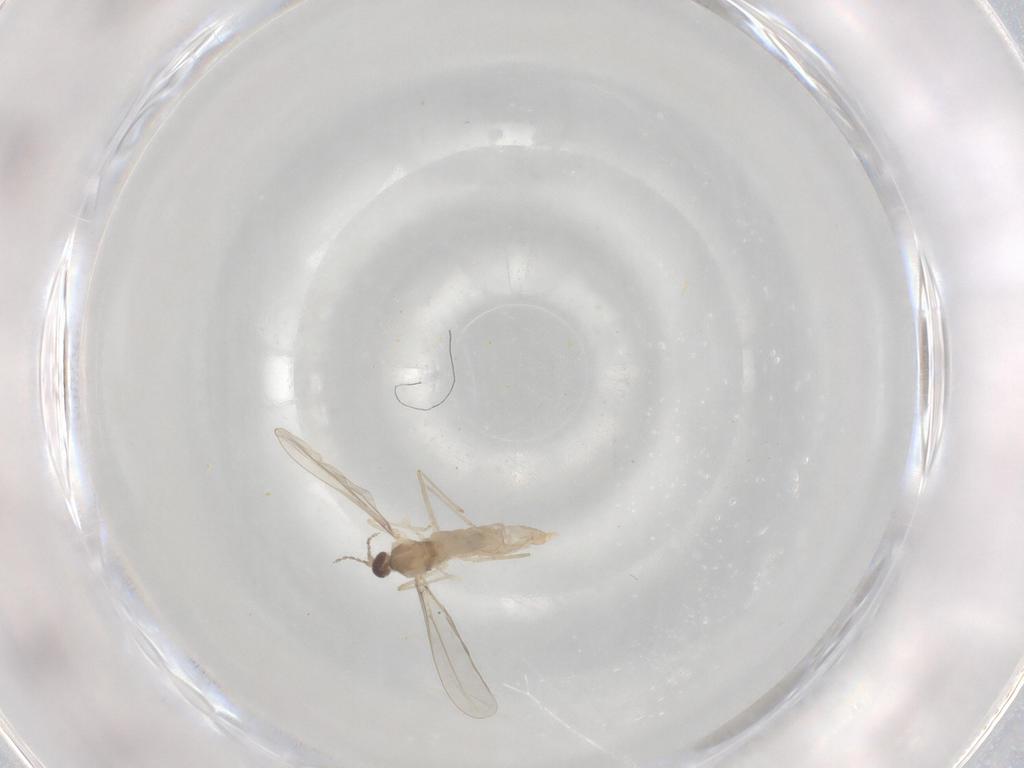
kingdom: Animalia
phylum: Arthropoda
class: Insecta
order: Diptera
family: Cecidomyiidae
